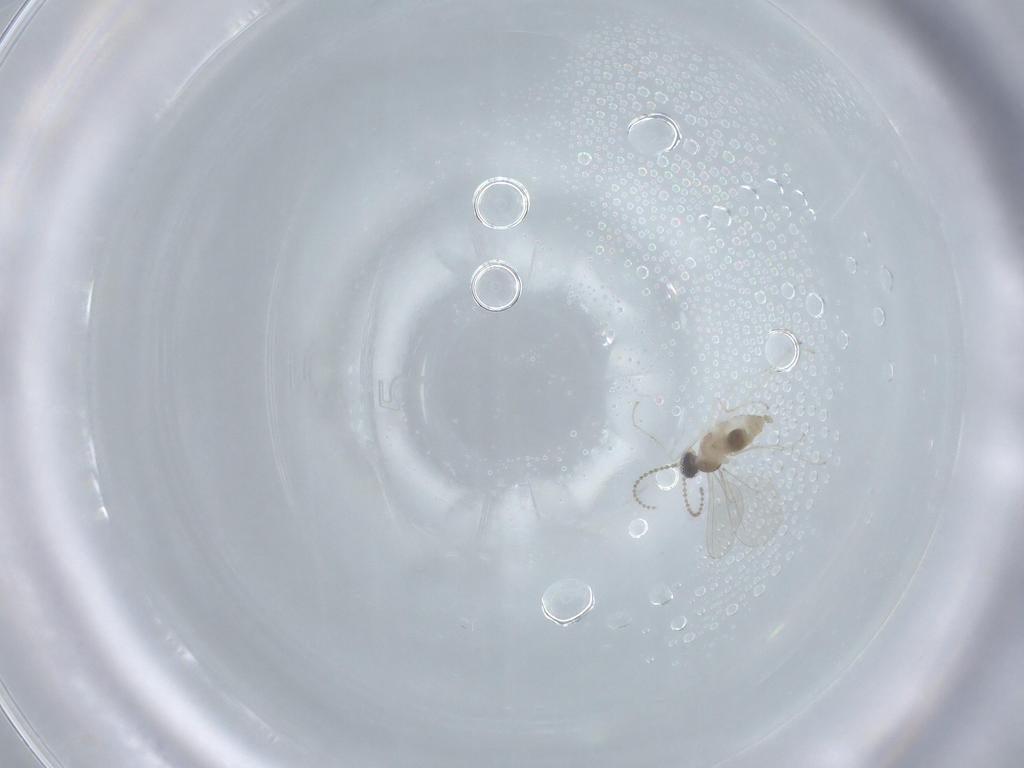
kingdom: Animalia
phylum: Arthropoda
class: Insecta
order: Diptera
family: Cecidomyiidae
